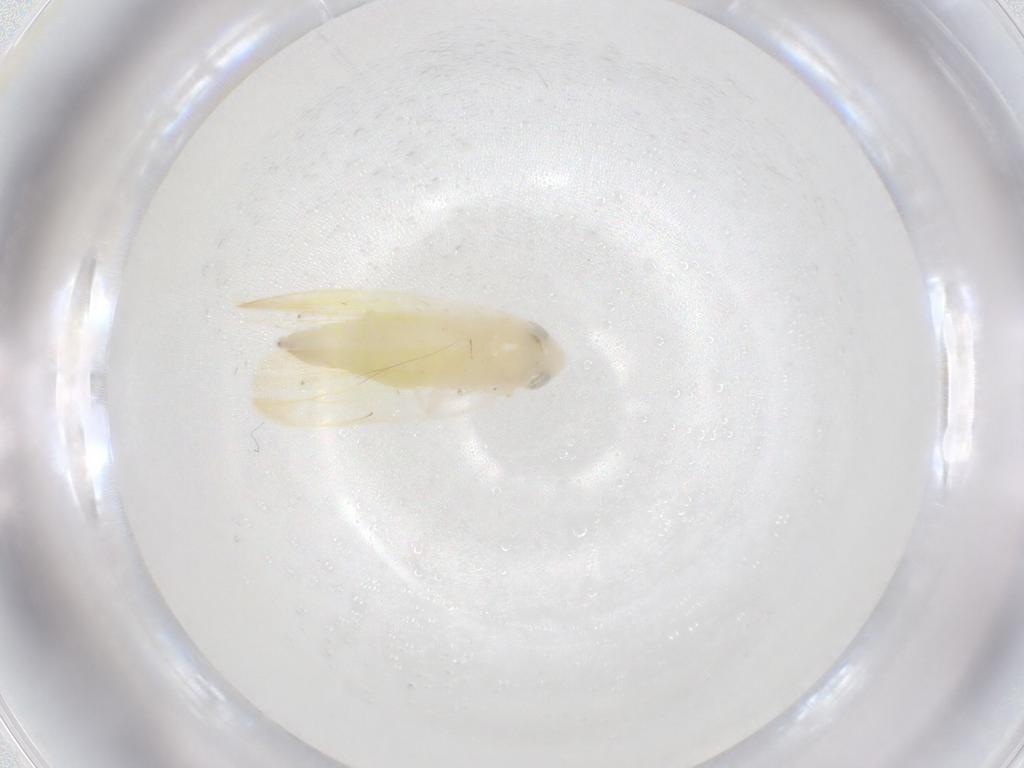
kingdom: Animalia
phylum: Arthropoda
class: Insecta
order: Hemiptera
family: Cicadellidae
